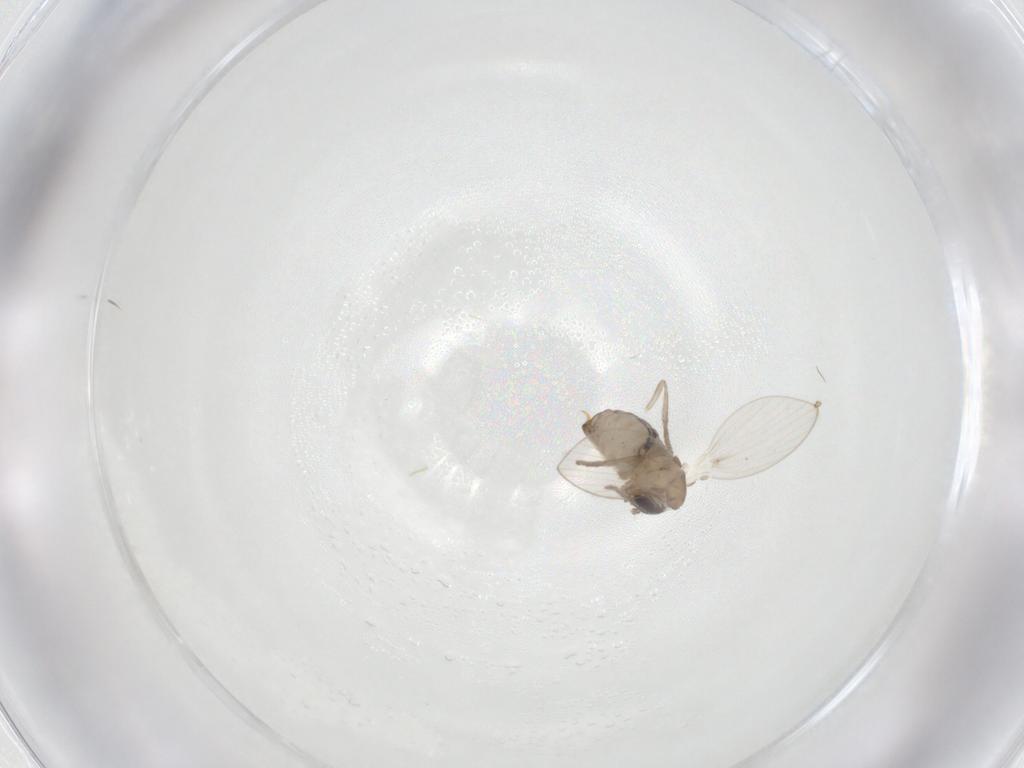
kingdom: Animalia
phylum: Arthropoda
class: Insecta
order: Diptera
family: Psychodidae
